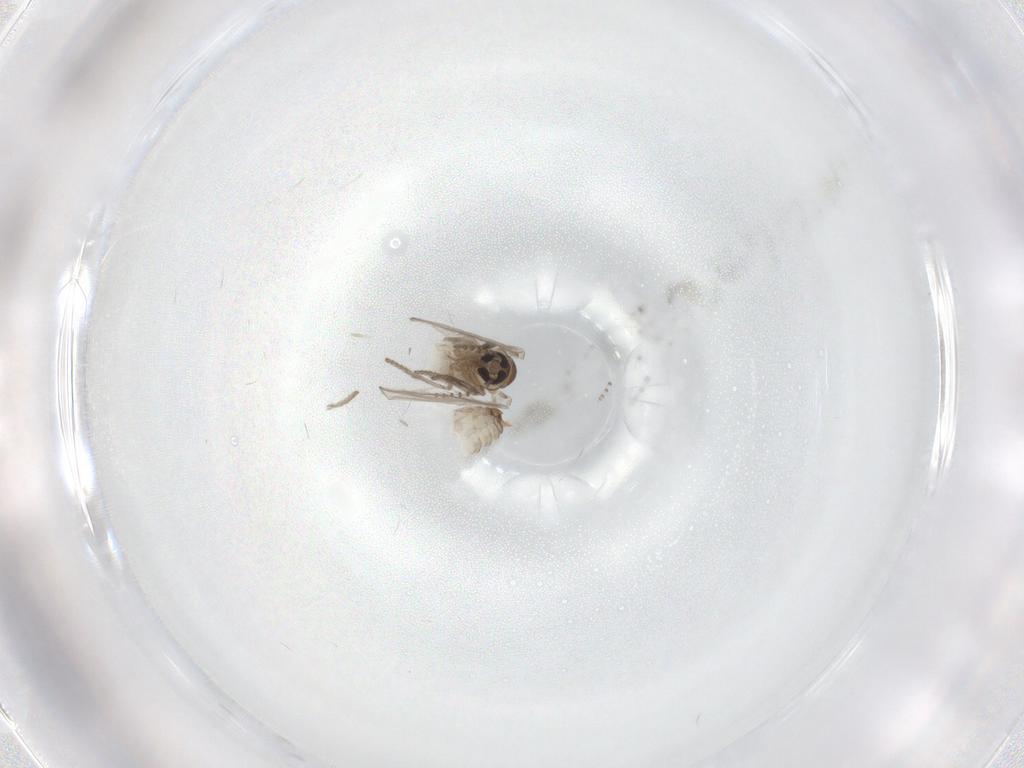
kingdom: Animalia
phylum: Arthropoda
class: Insecta
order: Diptera
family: Psychodidae
